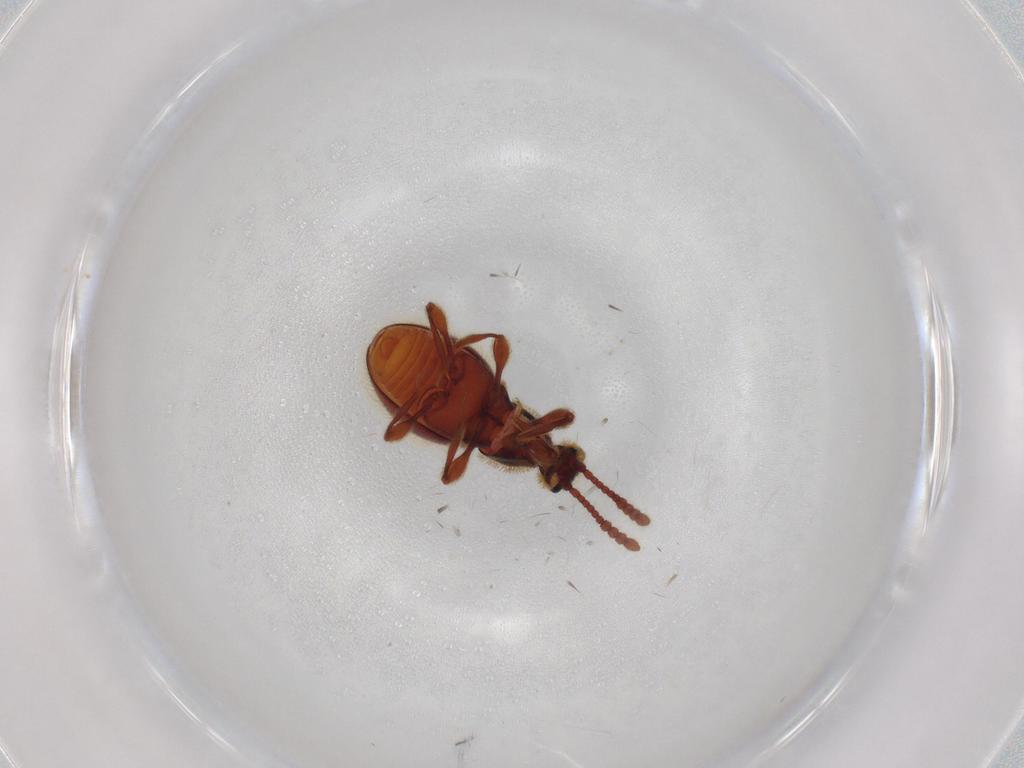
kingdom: Animalia
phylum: Arthropoda
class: Insecta
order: Coleoptera
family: Staphylinidae
